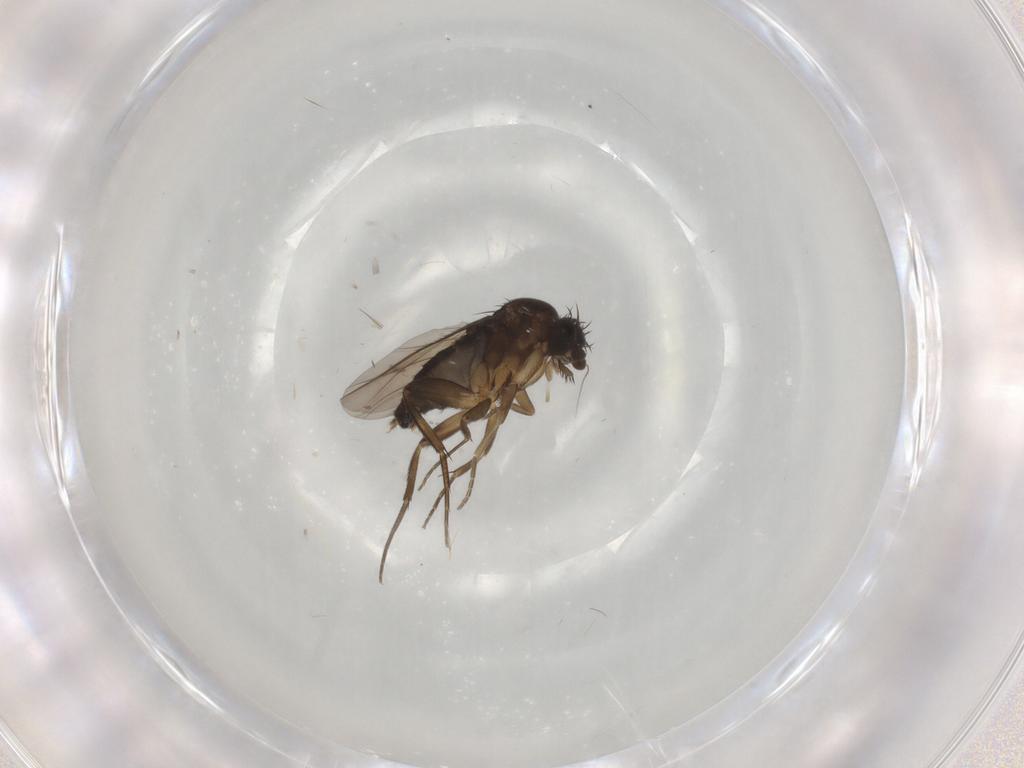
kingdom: Animalia
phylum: Arthropoda
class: Insecta
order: Diptera
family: Phoridae
